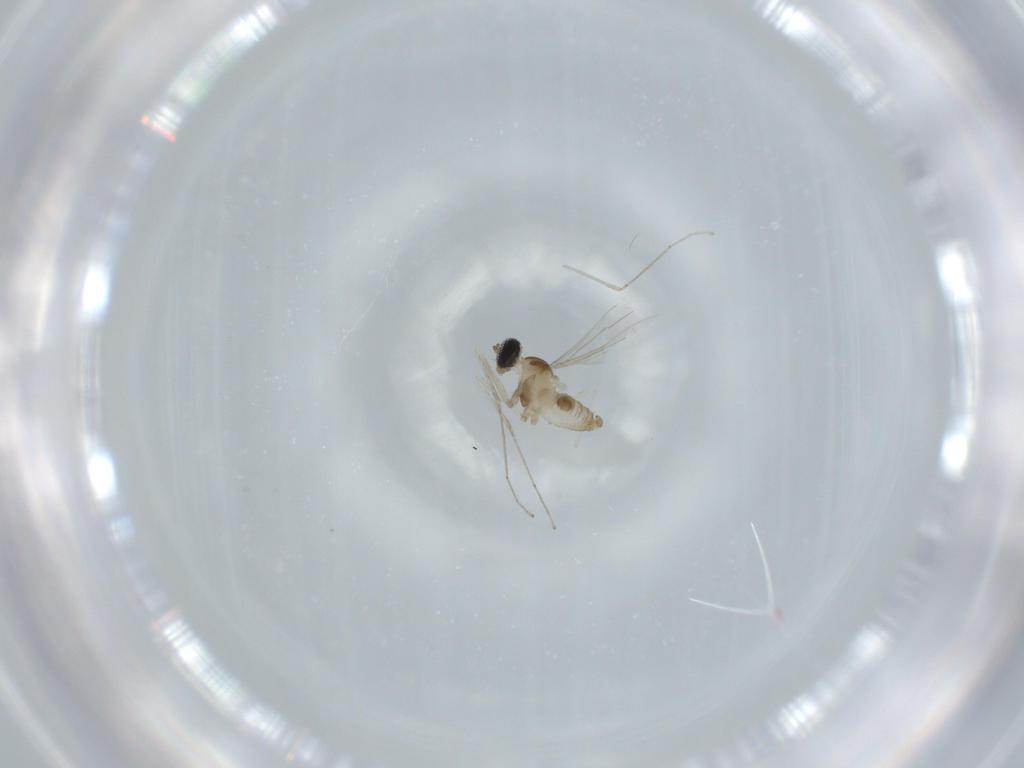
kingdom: Animalia
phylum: Arthropoda
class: Insecta
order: Diptera
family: Cecidomyiidae
